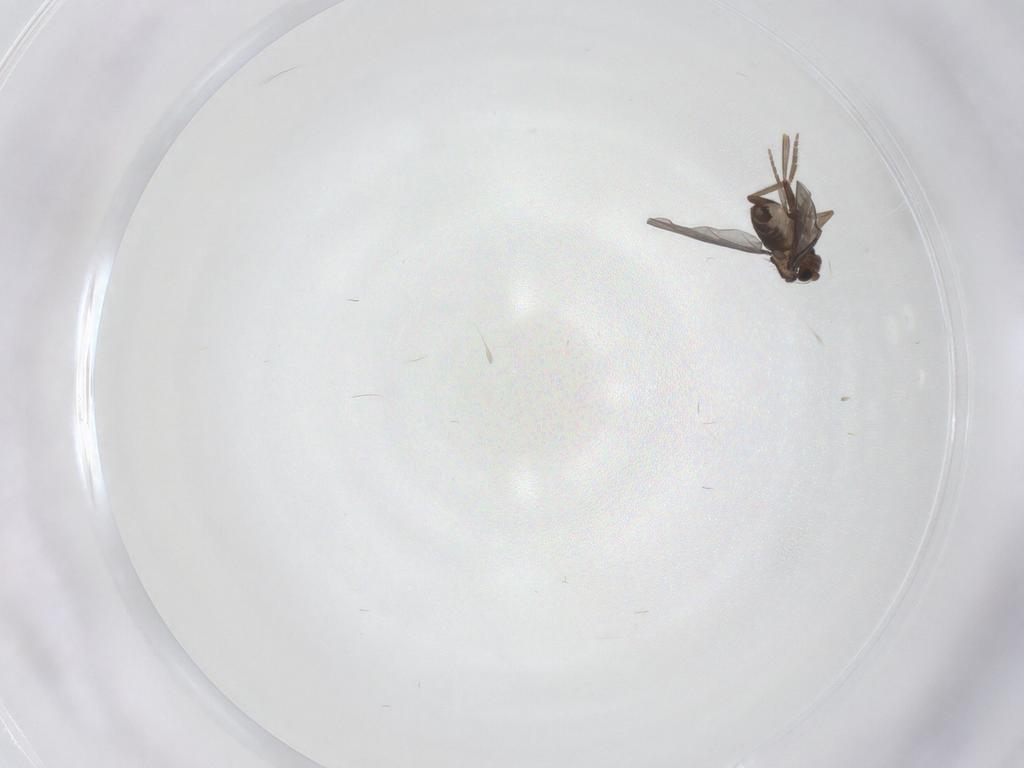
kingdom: Animalia
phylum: Arthropoda
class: Insecta
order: Diptera
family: Phoridae
